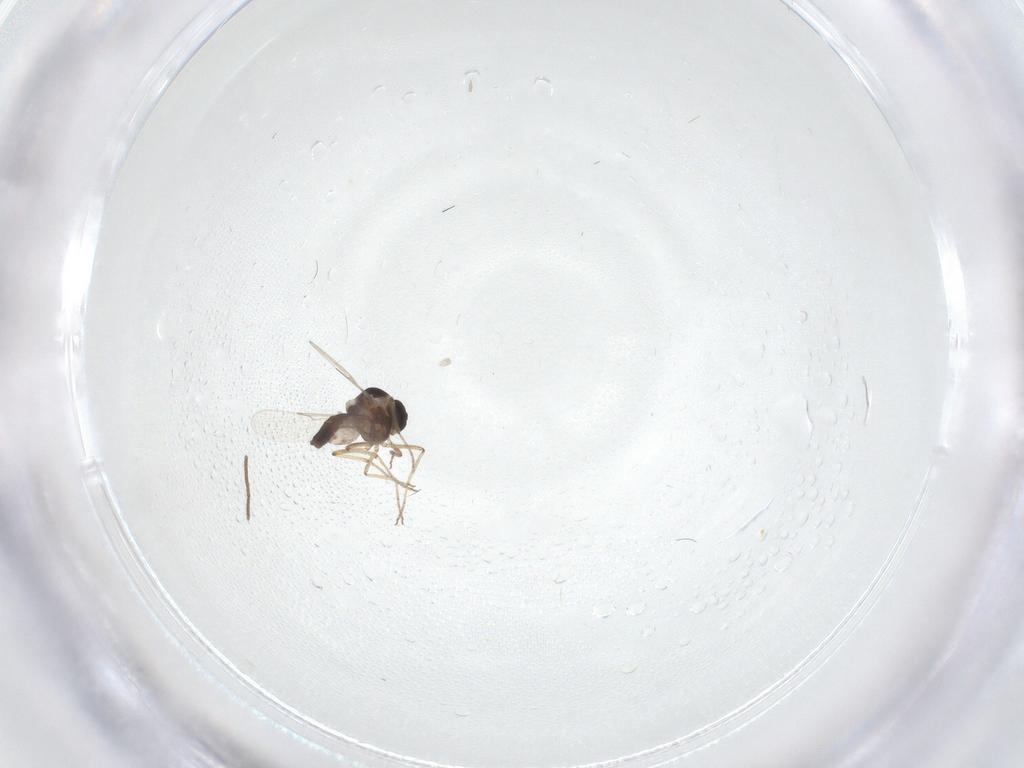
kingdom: Animalia
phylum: Arthropoda
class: Insecta
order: Diptera
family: Psychodidae
